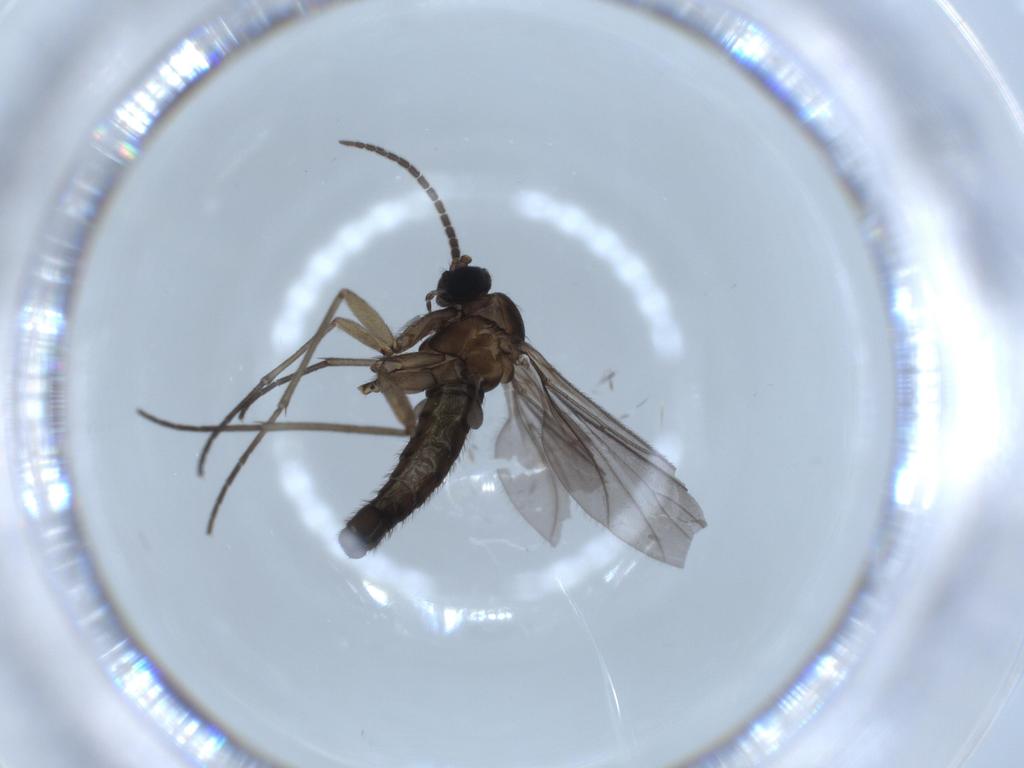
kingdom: Animalia
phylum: Arthropoda
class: Insecta
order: Diptera
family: Sciaridae
